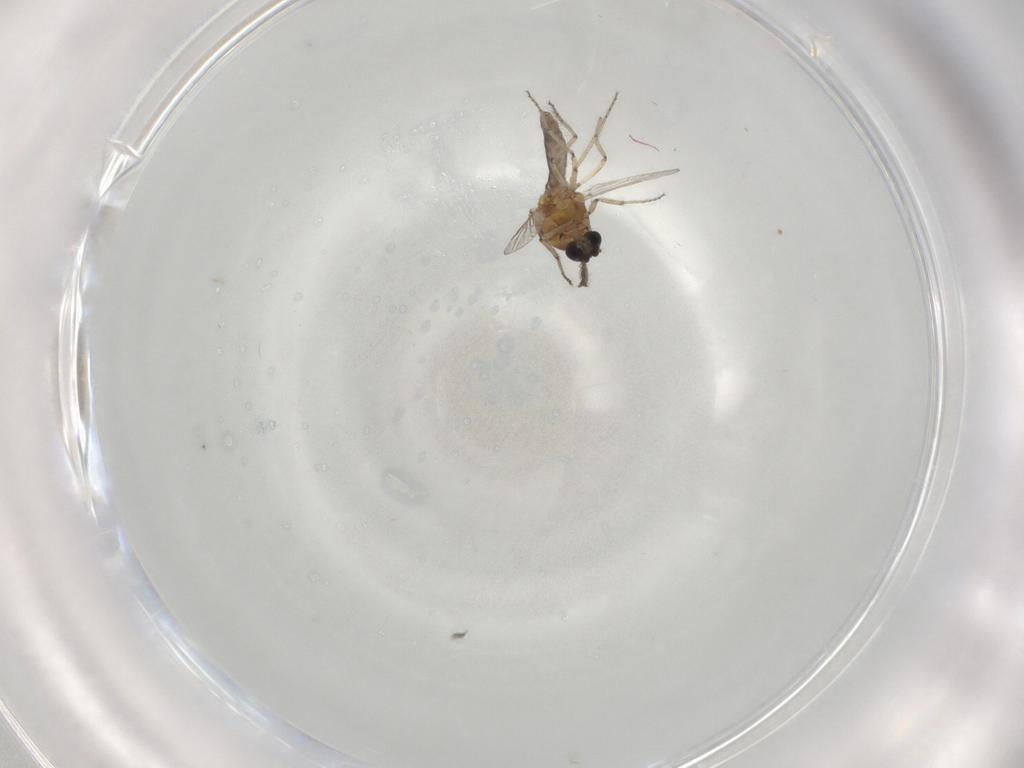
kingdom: Animalia
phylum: Arthropoda
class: Insecta
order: Diptera
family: Ceratopogonidae
